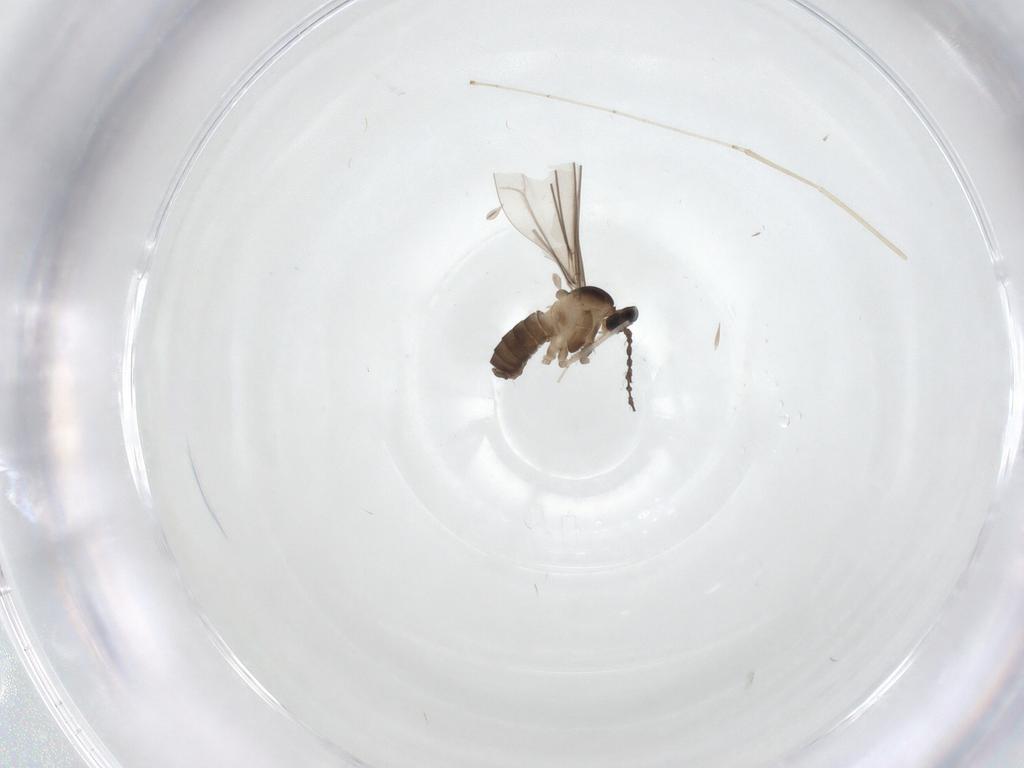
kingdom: Animalia
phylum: Arthropoda
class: Insecta
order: Diptera
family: Cecidomyiidae
